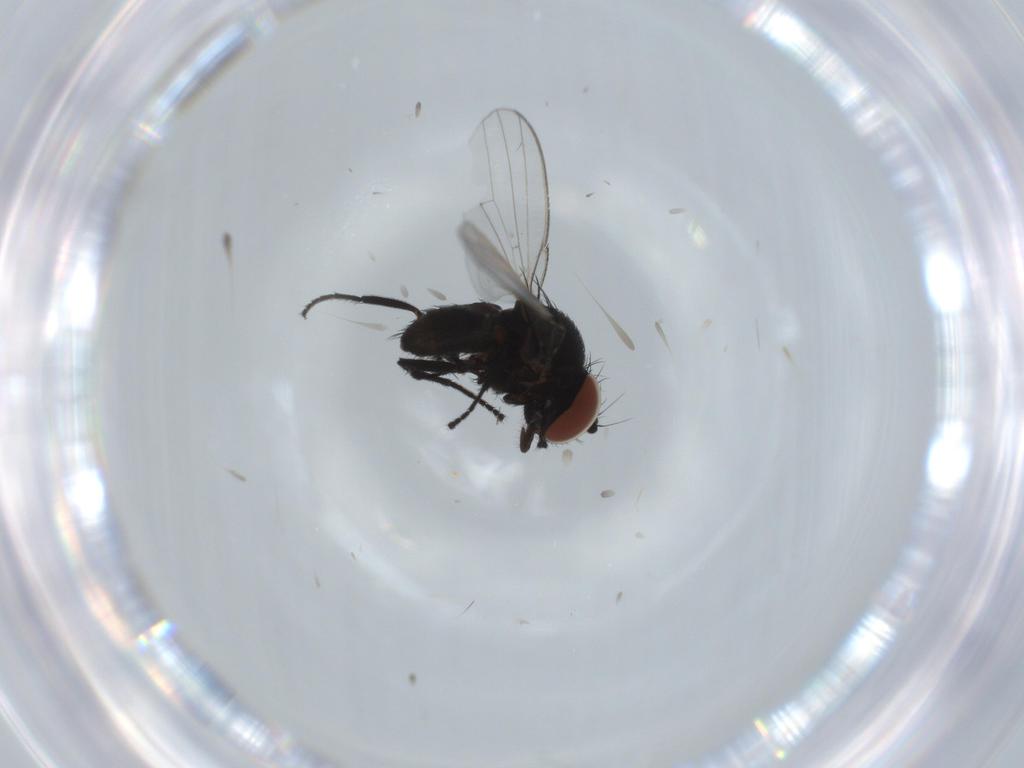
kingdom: Animalia
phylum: Arthropoda
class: Insecta
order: Diptera
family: Milichiidae
